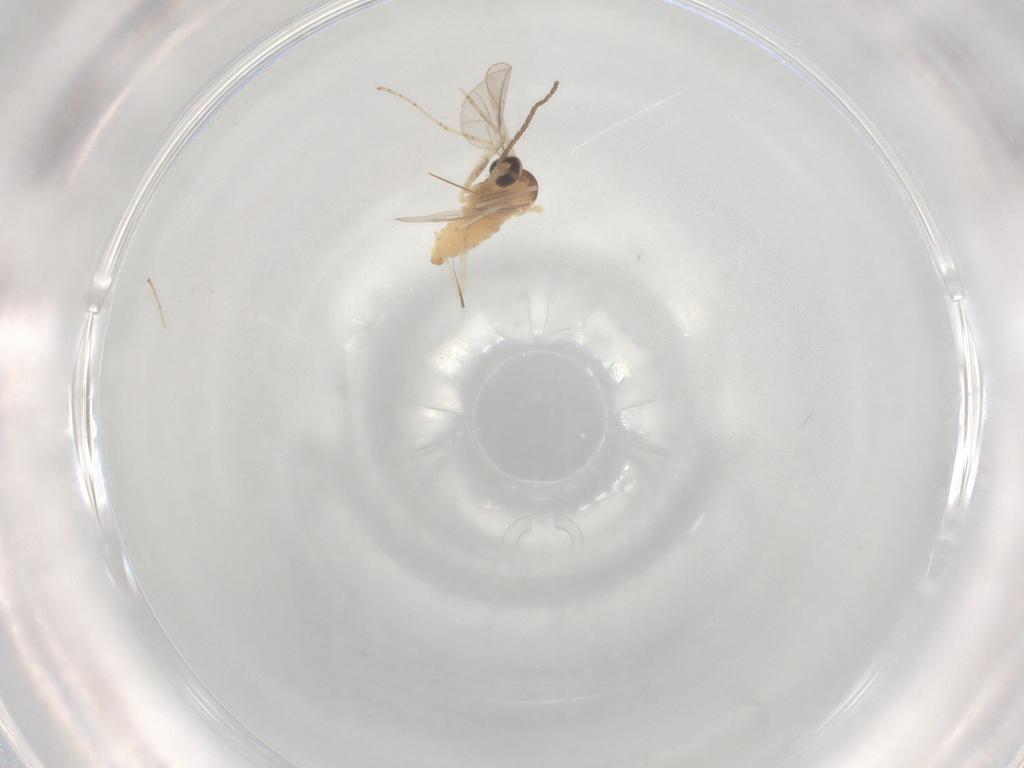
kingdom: Animalia
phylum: Arthropoda
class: Insecta
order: Diptera
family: Cecidomyiidae
